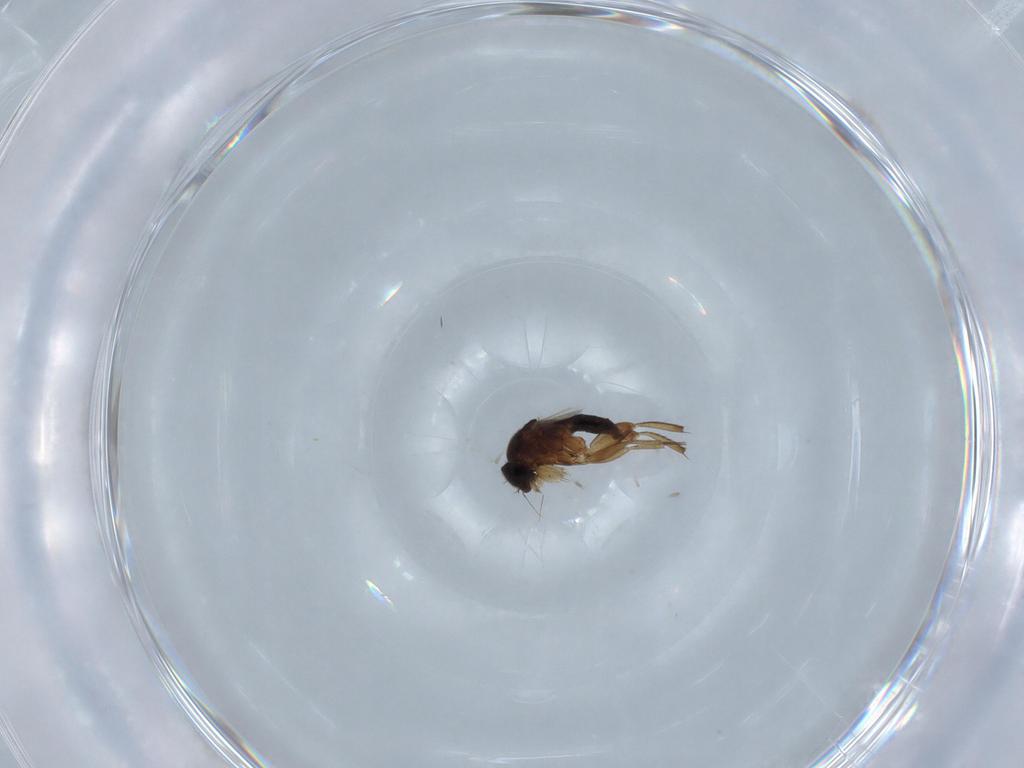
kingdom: Animalia
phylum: Arthropoda
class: Insecta
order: Diptera
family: Phoridae
